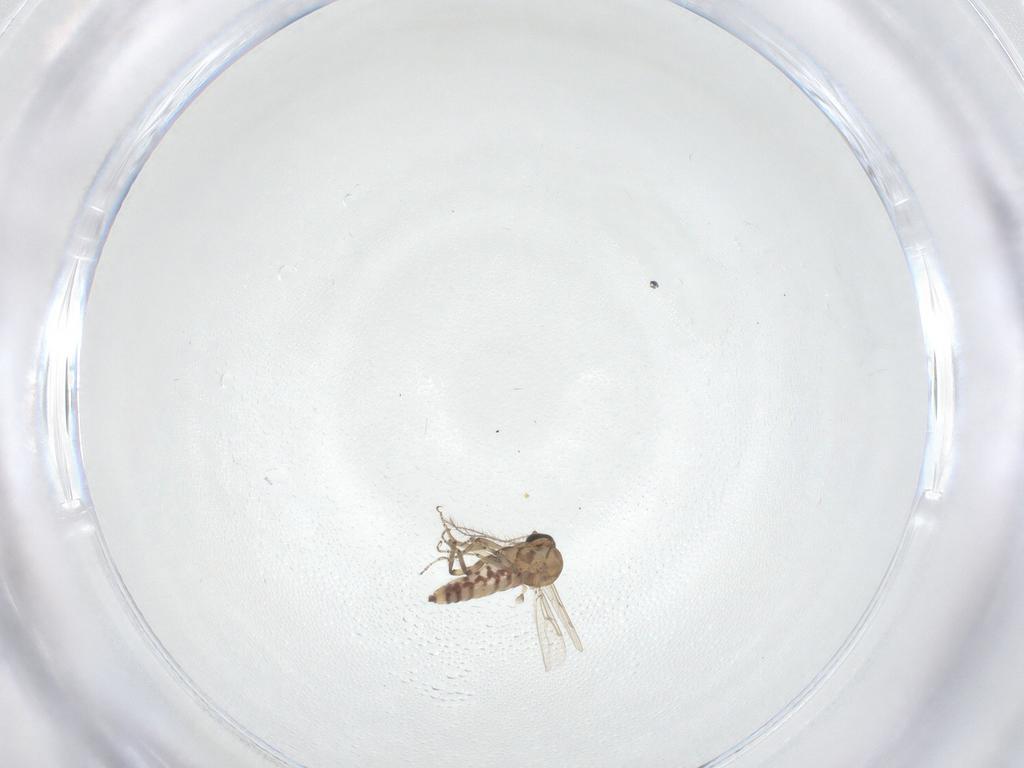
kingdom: Animalia
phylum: Arthropoda
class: Insecta
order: Diptera
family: Ceratopogonidae
